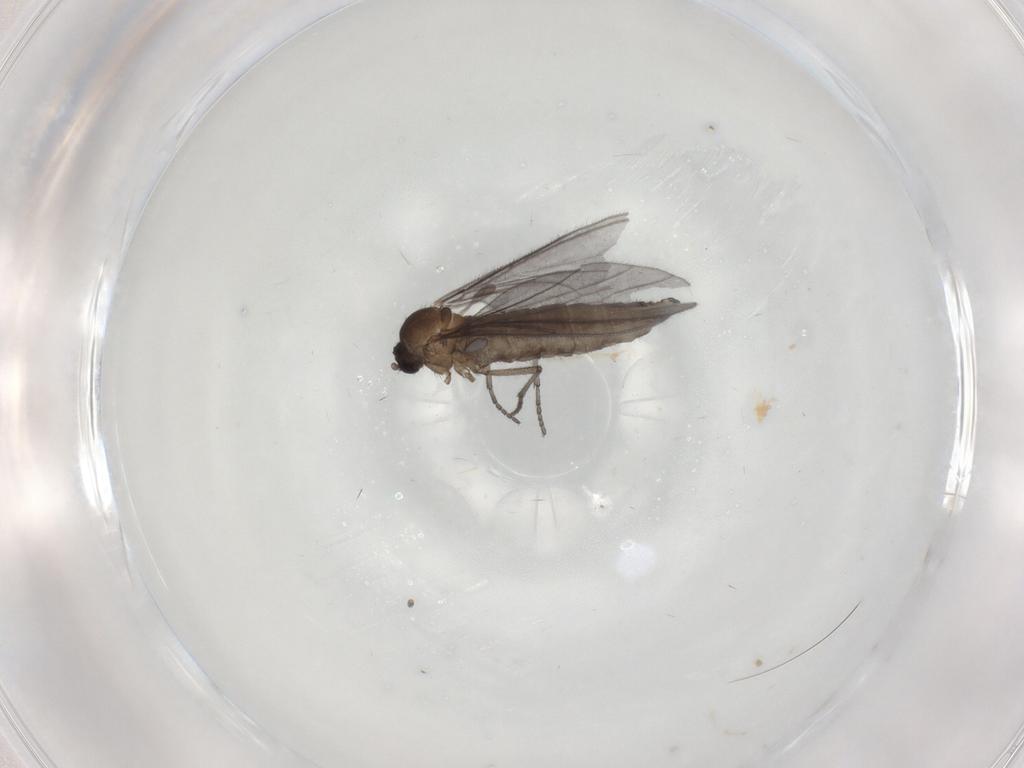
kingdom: Animalia
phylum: Arthropoda
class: Insecta
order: Diptera
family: Sciaridae
